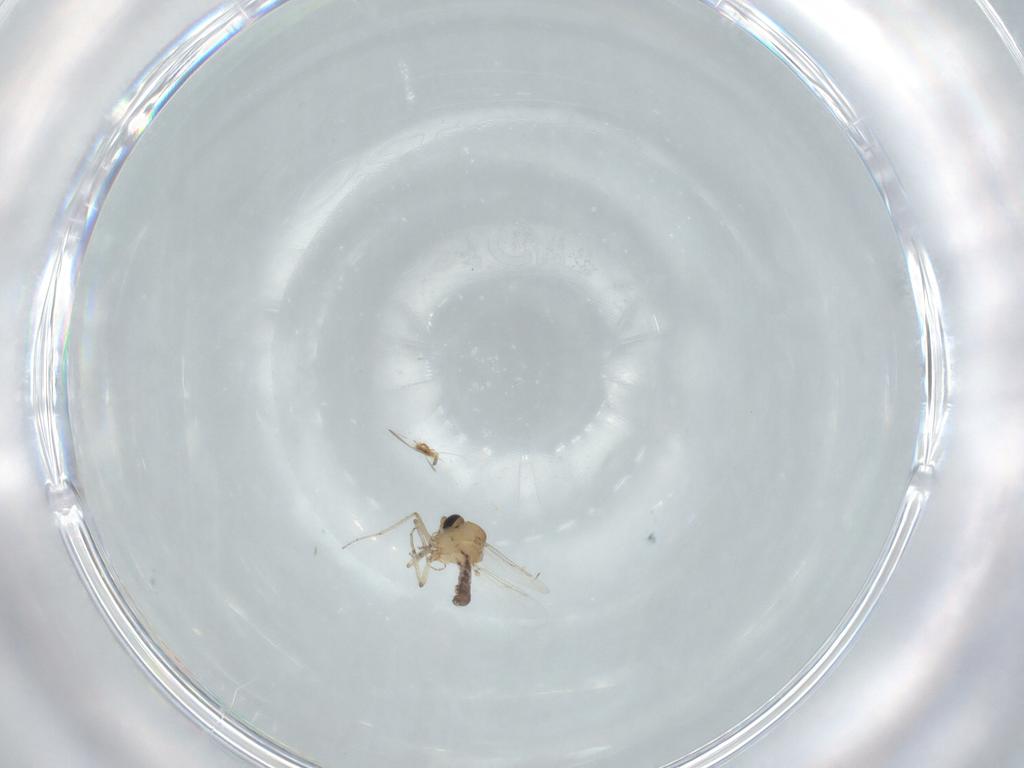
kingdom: Animalia
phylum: Arthropoda
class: Insecta
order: Diptera
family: Ceratopogonidae
